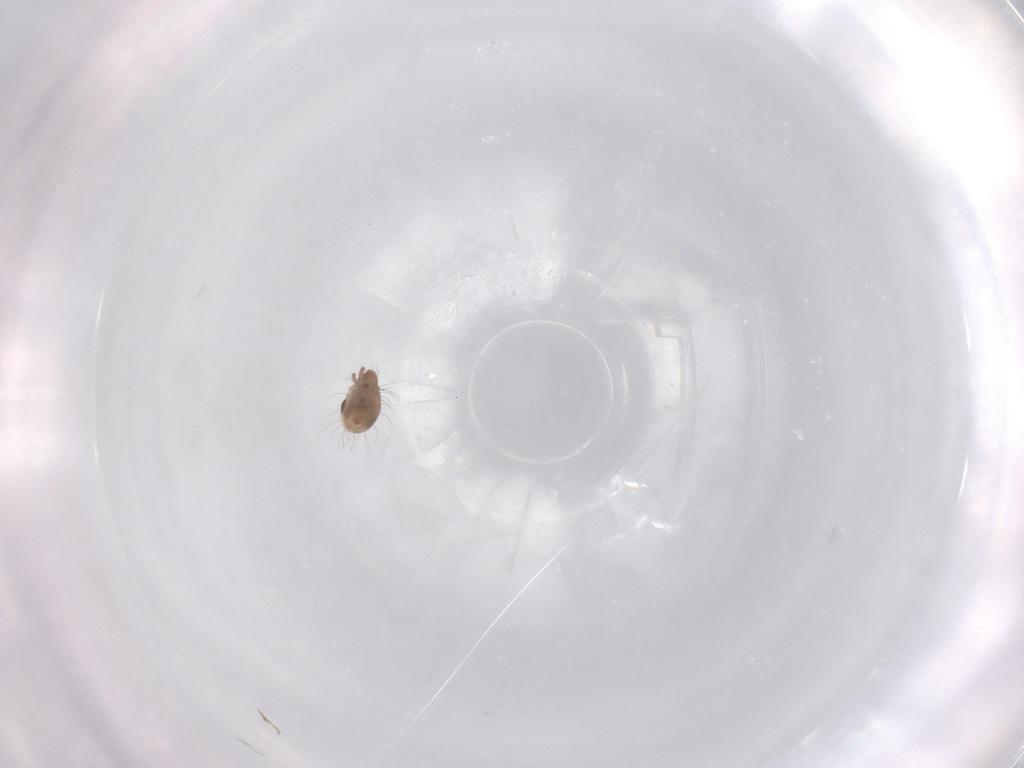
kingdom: Animalia
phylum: Arthropoda
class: Arachnida
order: Sarcoptiformes
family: Humerobatidae
